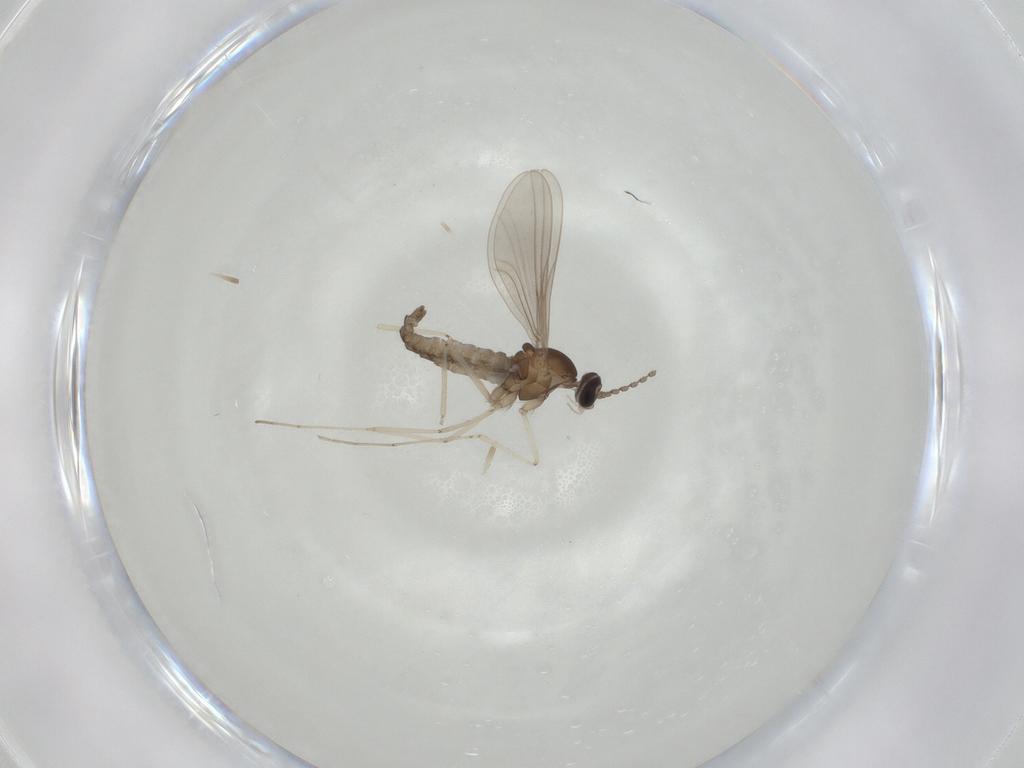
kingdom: Animalia
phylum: Arthropoda
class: Insecta
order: Diptera
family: Cecidomyiidae
